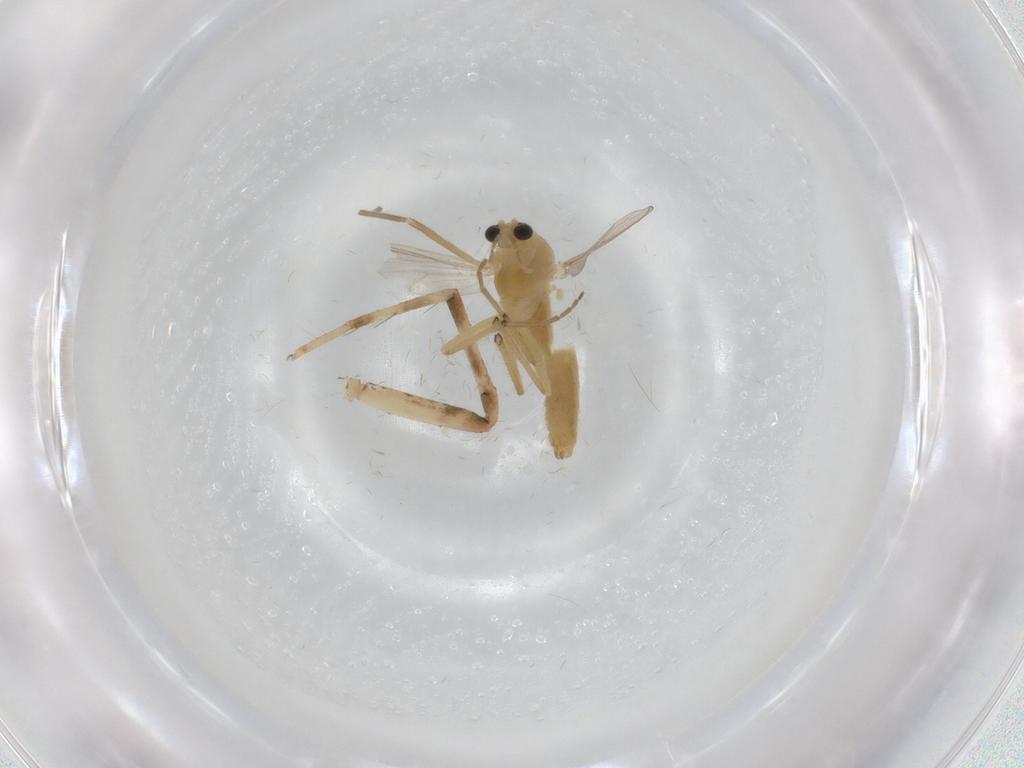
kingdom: Animalia
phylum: Arthropoda
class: Insecta
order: Diptera
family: Chironomidae
